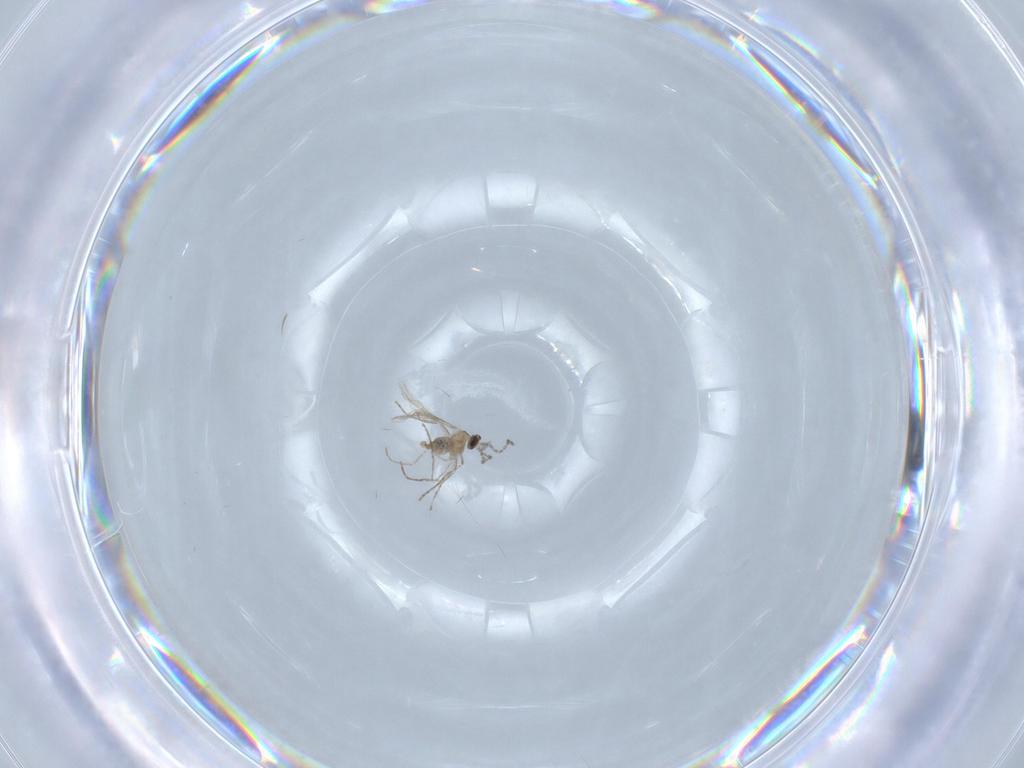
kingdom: Animalia
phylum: Arthropoda
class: Insecta
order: Diptera
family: Cecidomyiidae
